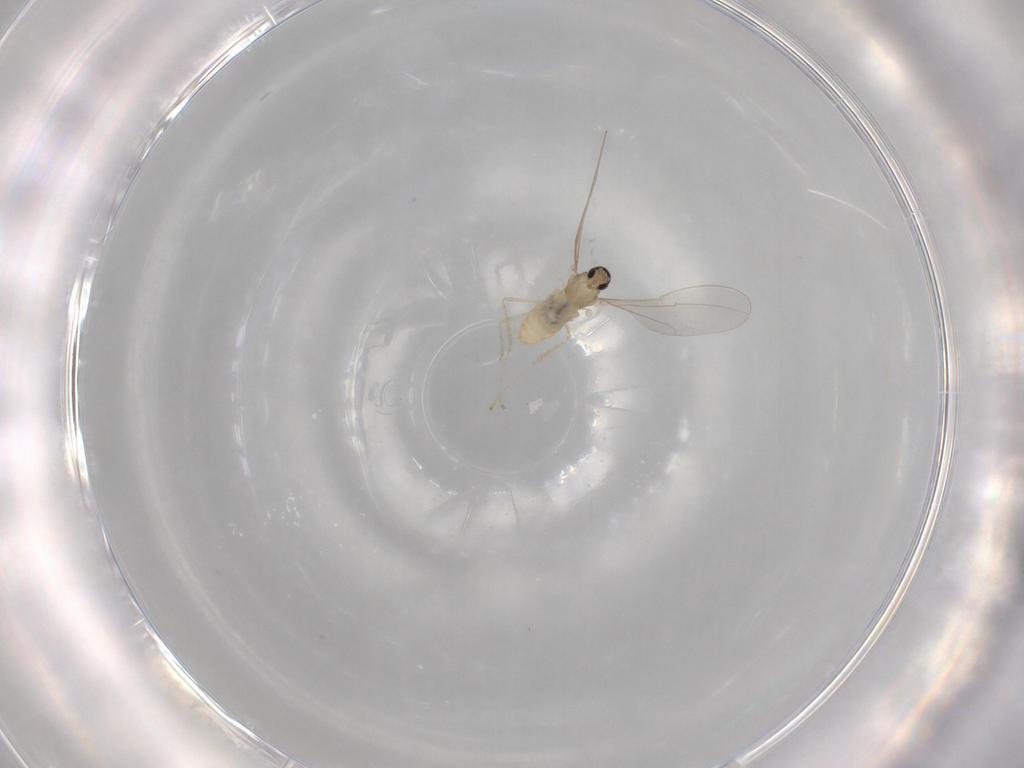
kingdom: Animalia
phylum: Arthropoda
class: Insecta
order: Diptera
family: Cecidomyiidae
